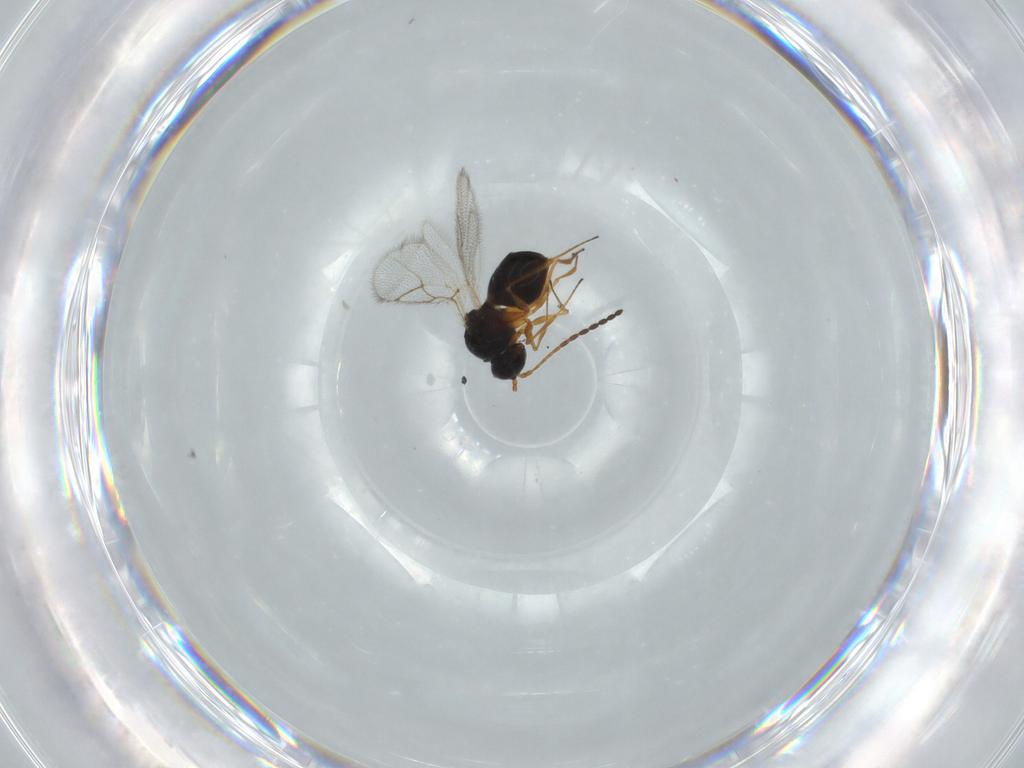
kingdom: Animalia
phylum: Arthropoda
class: Insecta
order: Hymenoptera
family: Figitidae
